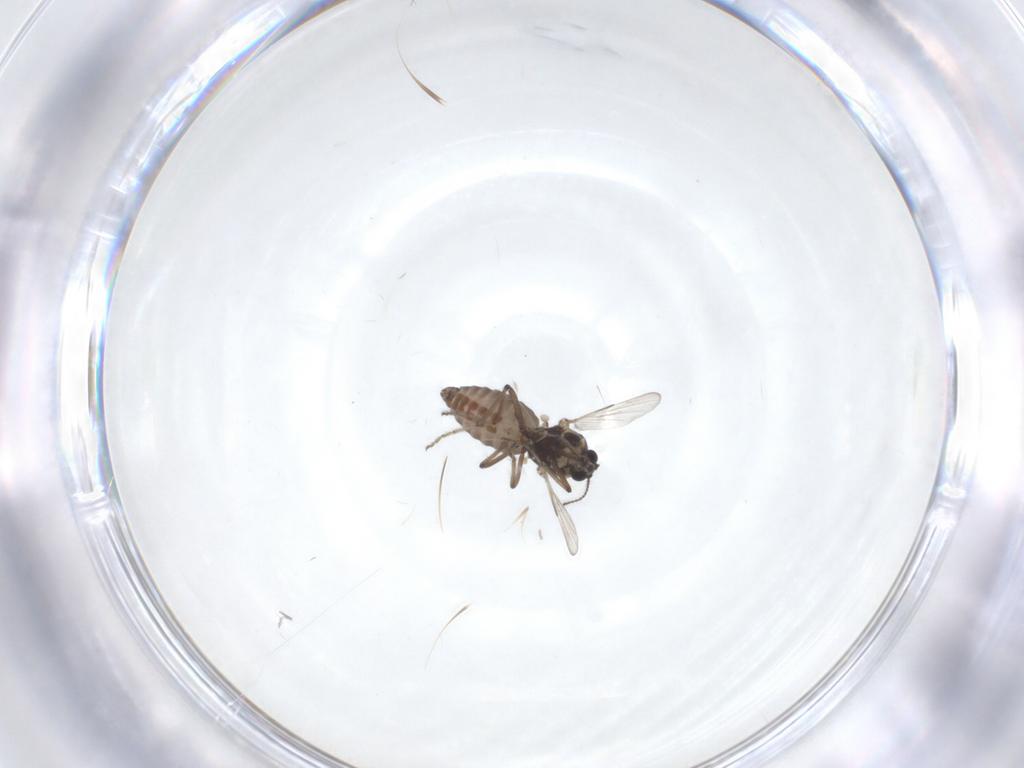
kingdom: Animalia
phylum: Arthropoda
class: Insecta
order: Diptera
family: Ceratopogonidae
